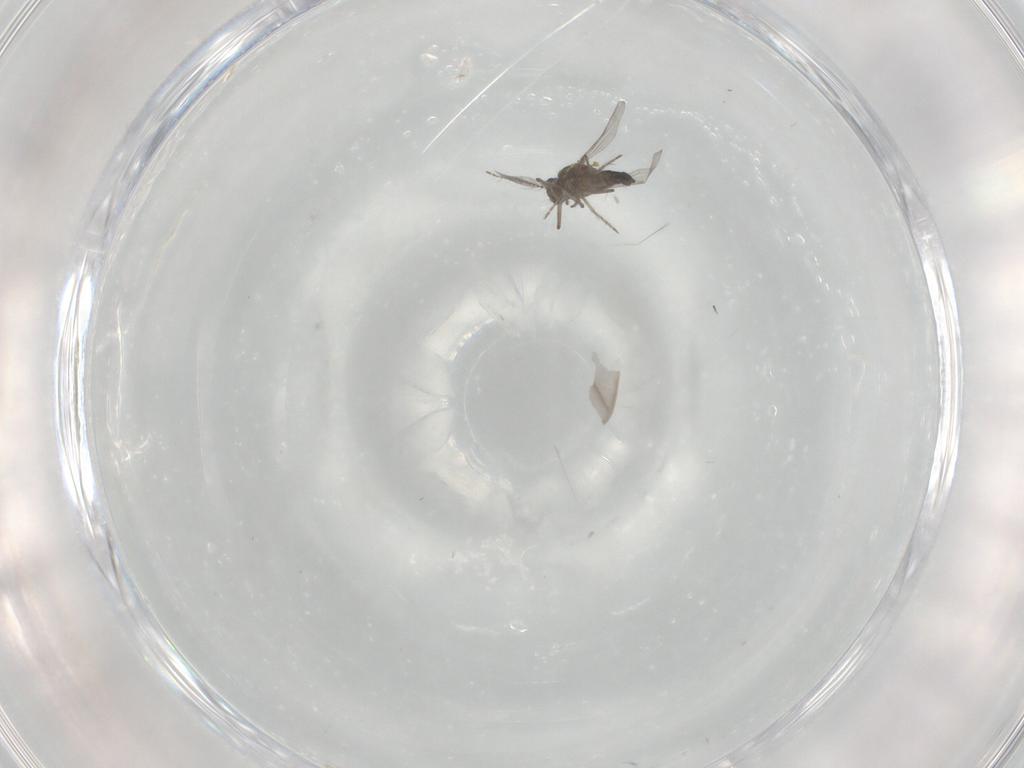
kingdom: Animalia
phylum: Arthropoda
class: Insecta
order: Diptera
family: Ceratopogonidae
